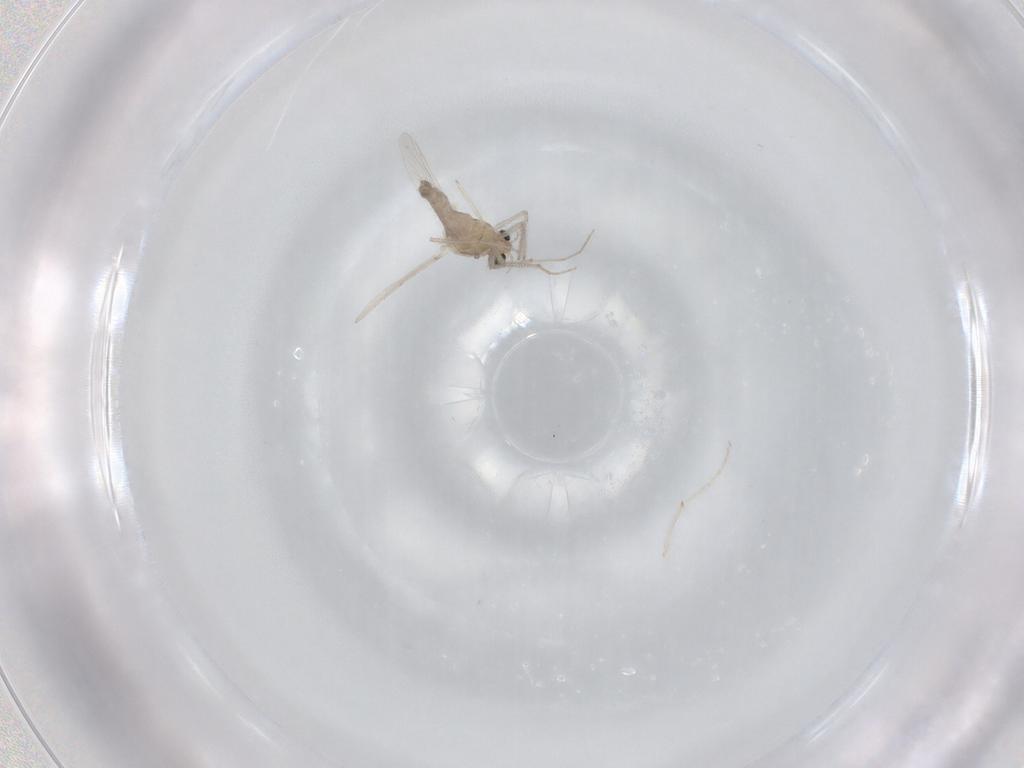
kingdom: Animalia
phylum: Arthropoda
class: Insecta
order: Diptera
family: Chironomidae
